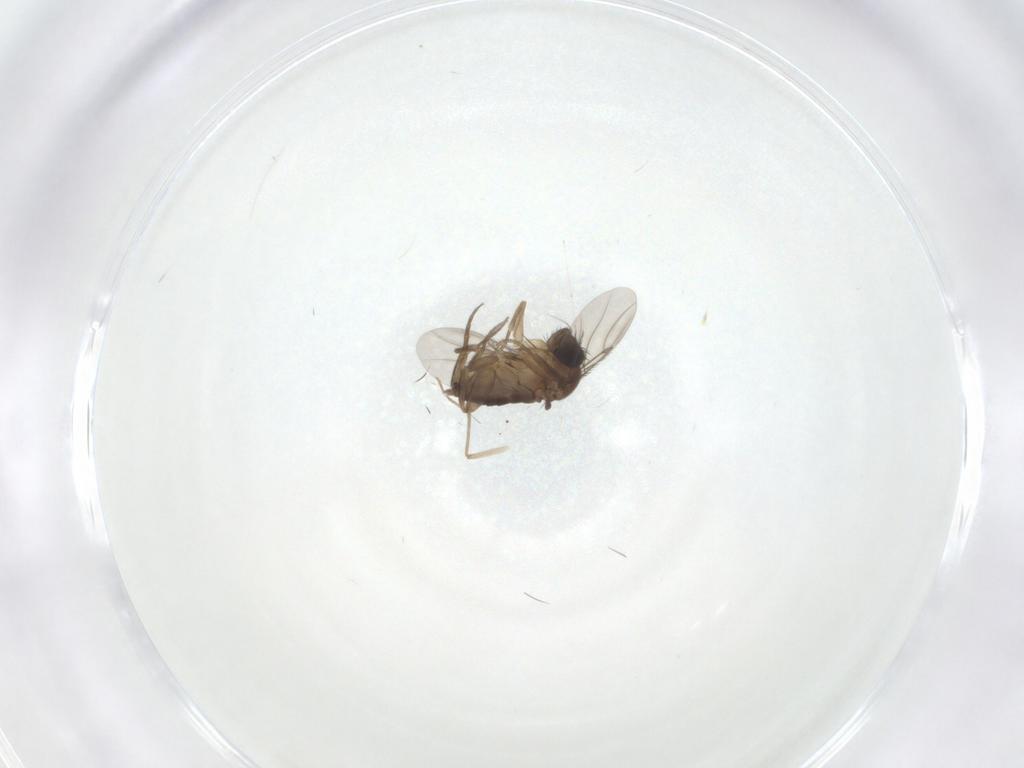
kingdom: Animalia
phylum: Arthropoda
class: Insecta
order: Diptera
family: Phoridae
